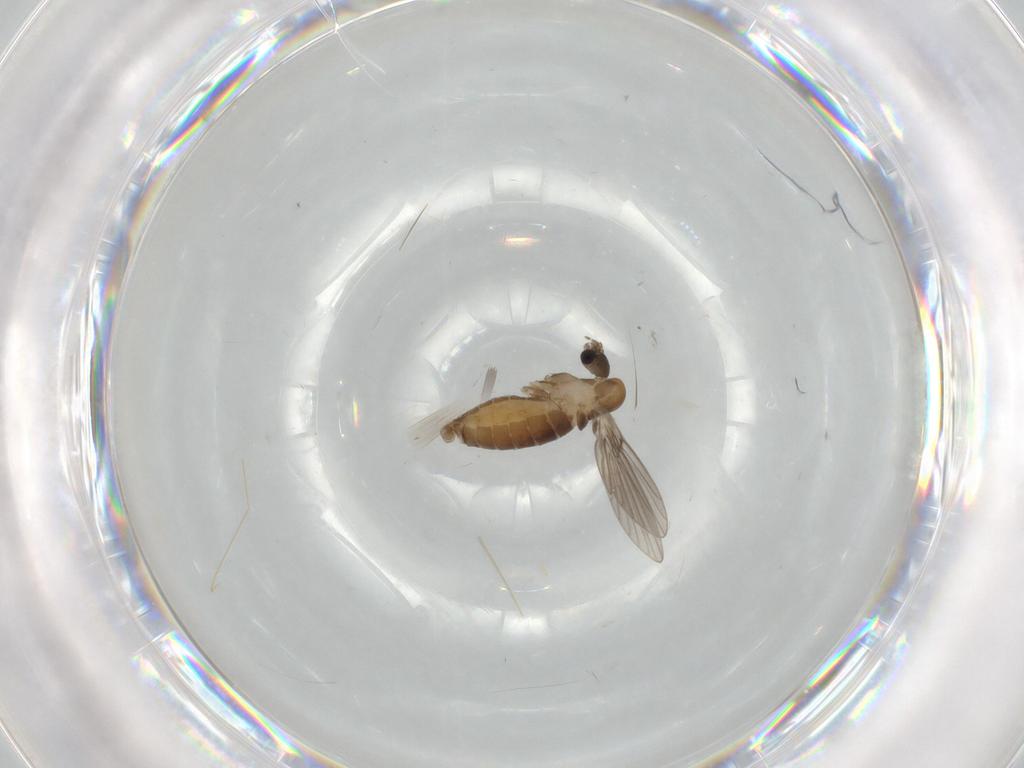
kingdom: Animalia
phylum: Arthropoda
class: Insecta
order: Diptera
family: Psychodidae
